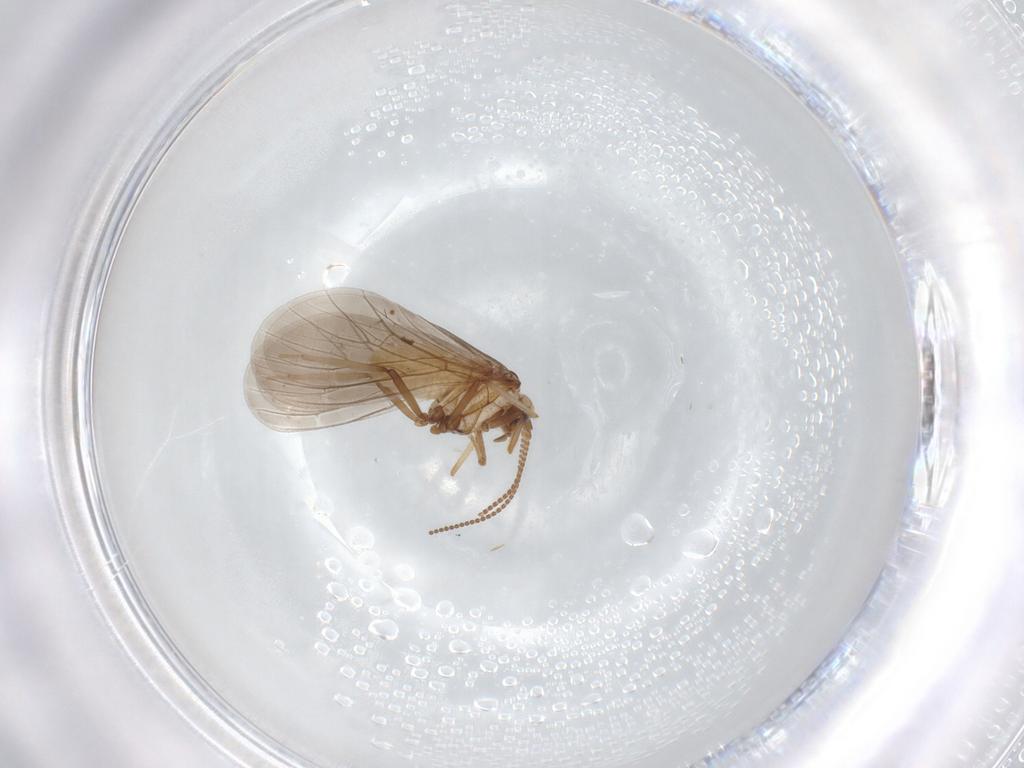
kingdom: Animalia
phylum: Arthropoda
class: Insecta
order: Neuroptera
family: Coniopterygidae
